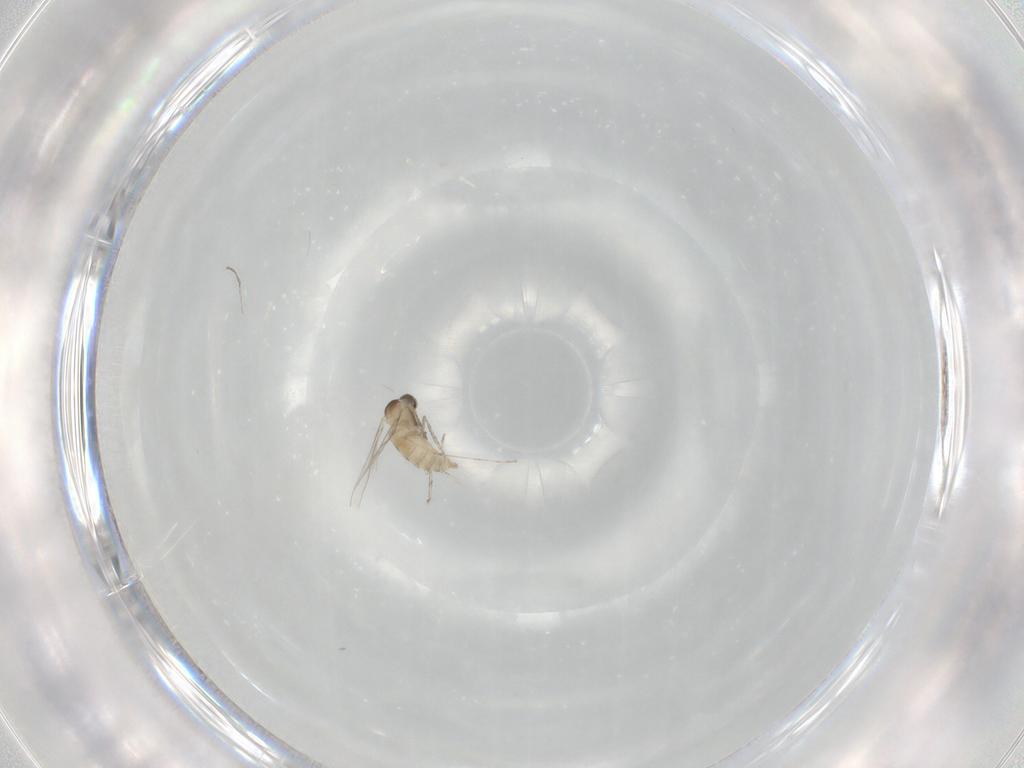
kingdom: Animalia
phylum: Arthropoda
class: Insecta
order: Diptera
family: Cecidomyiidae
